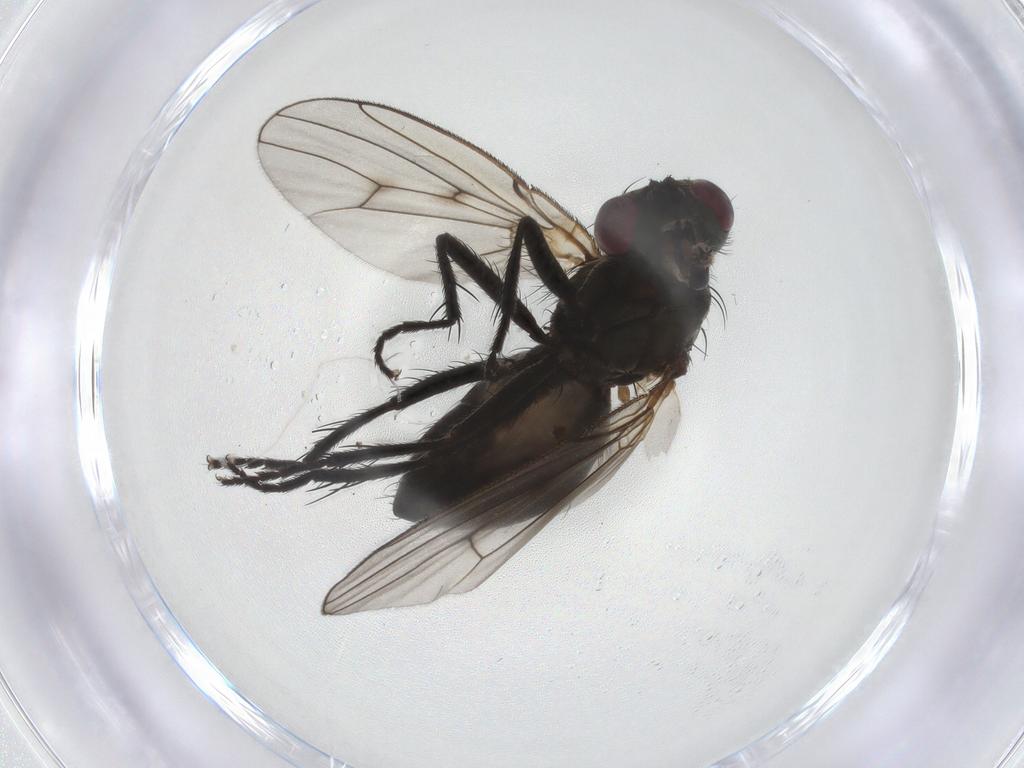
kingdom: Animalia
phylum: Arthropoda
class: Insecta
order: Diptera
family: Muscidae
